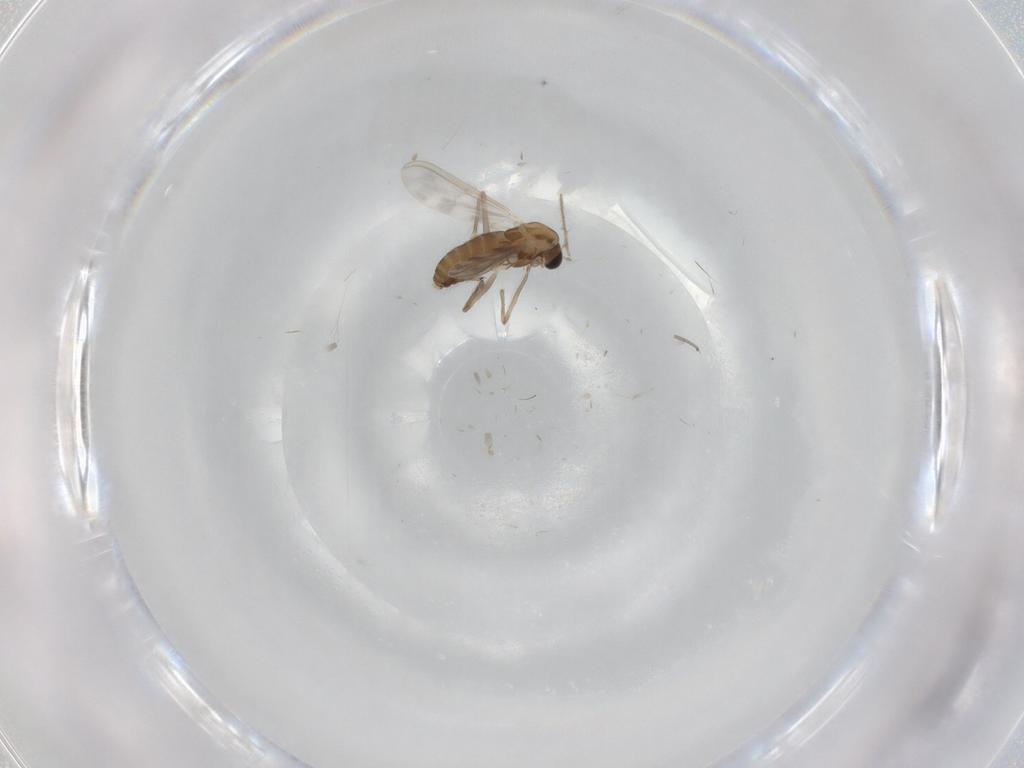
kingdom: Animalia
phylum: Arthropoda
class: Insecta
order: Diptera
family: Chironomidae
